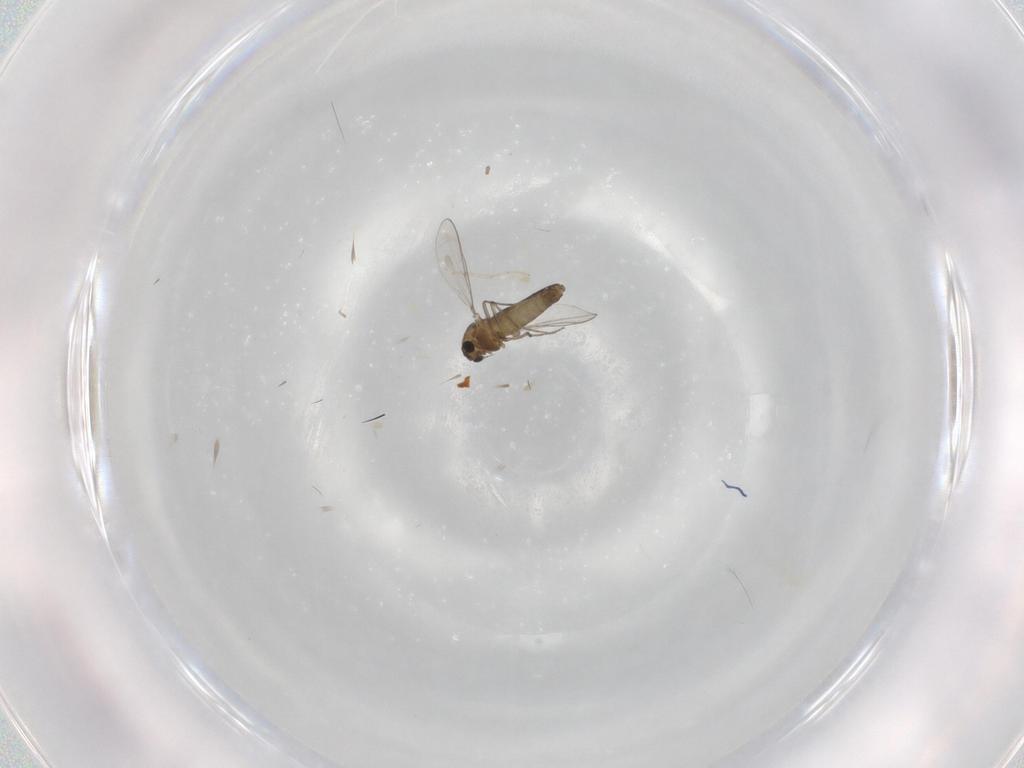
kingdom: Animalia
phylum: Arthropoda
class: Insecta
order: Diptera
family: Chironomidae
